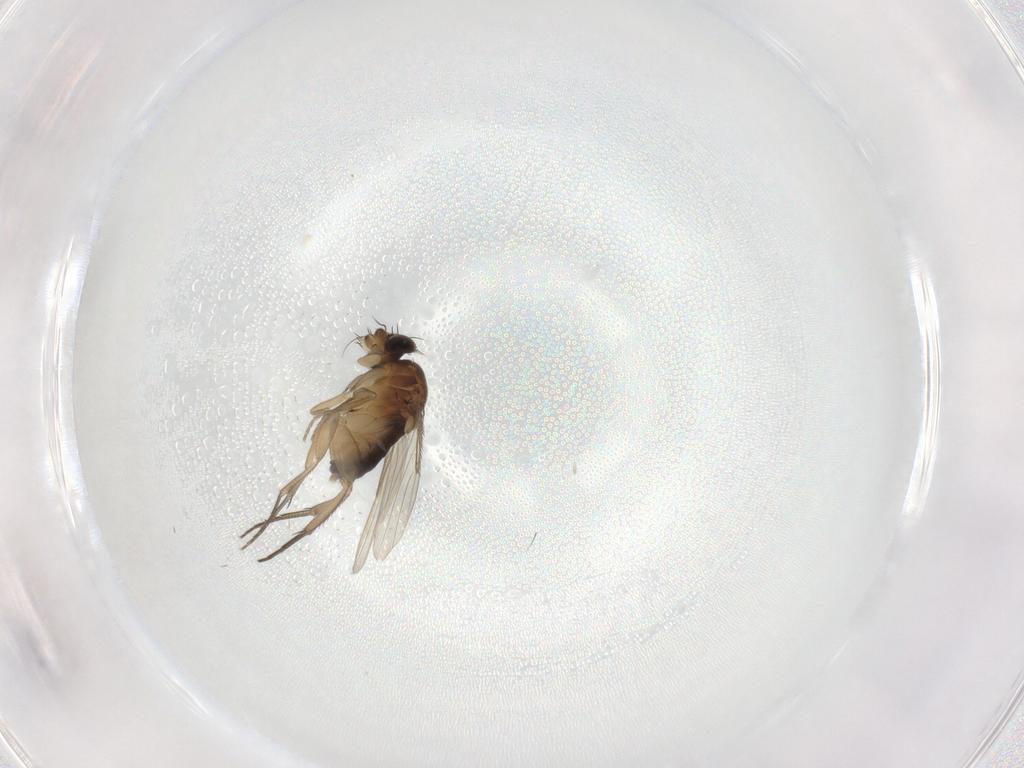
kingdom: Animalia
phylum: Arthropoda
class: Insecta
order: Diptera
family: Phoridae
